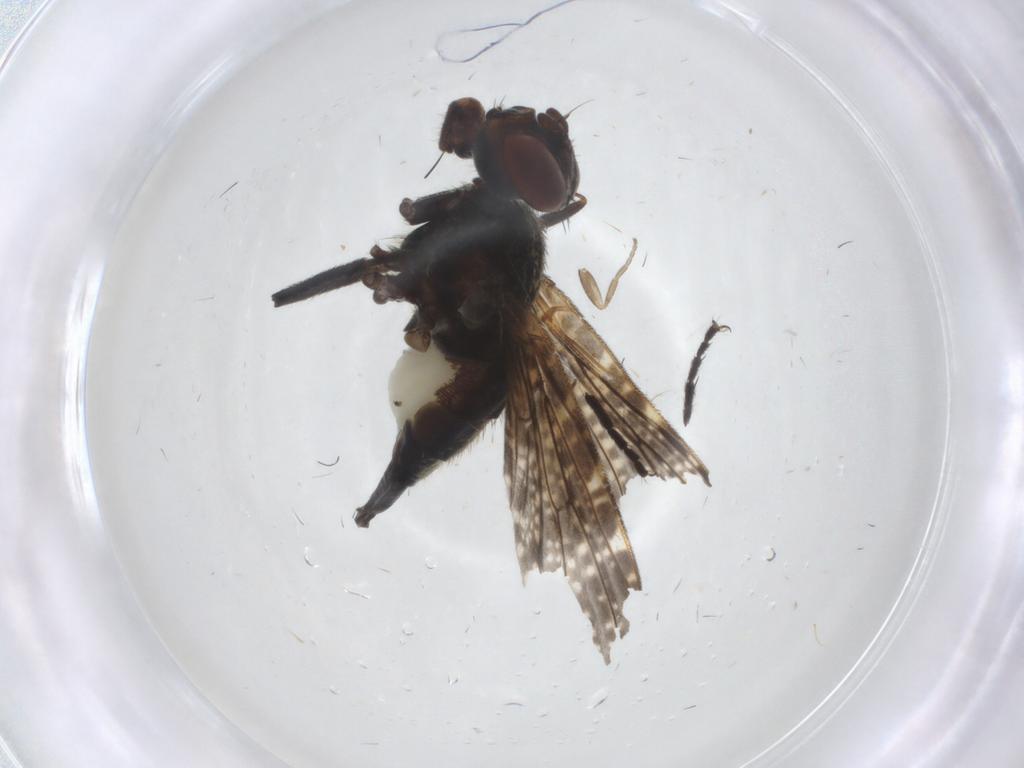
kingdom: Animalia
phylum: Arthropoda
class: Insecta
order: Diptera
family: Platystomatidae
